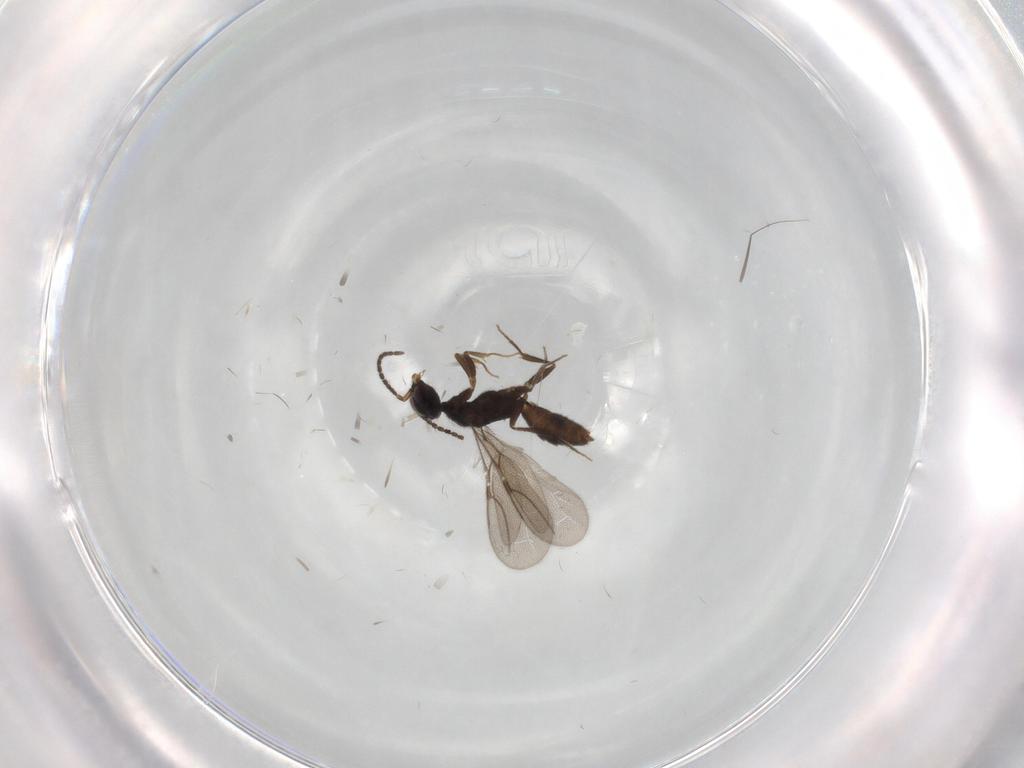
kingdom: Animalia
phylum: Arthropoda
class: Insecta
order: Hymenoptera
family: Bethylidae
